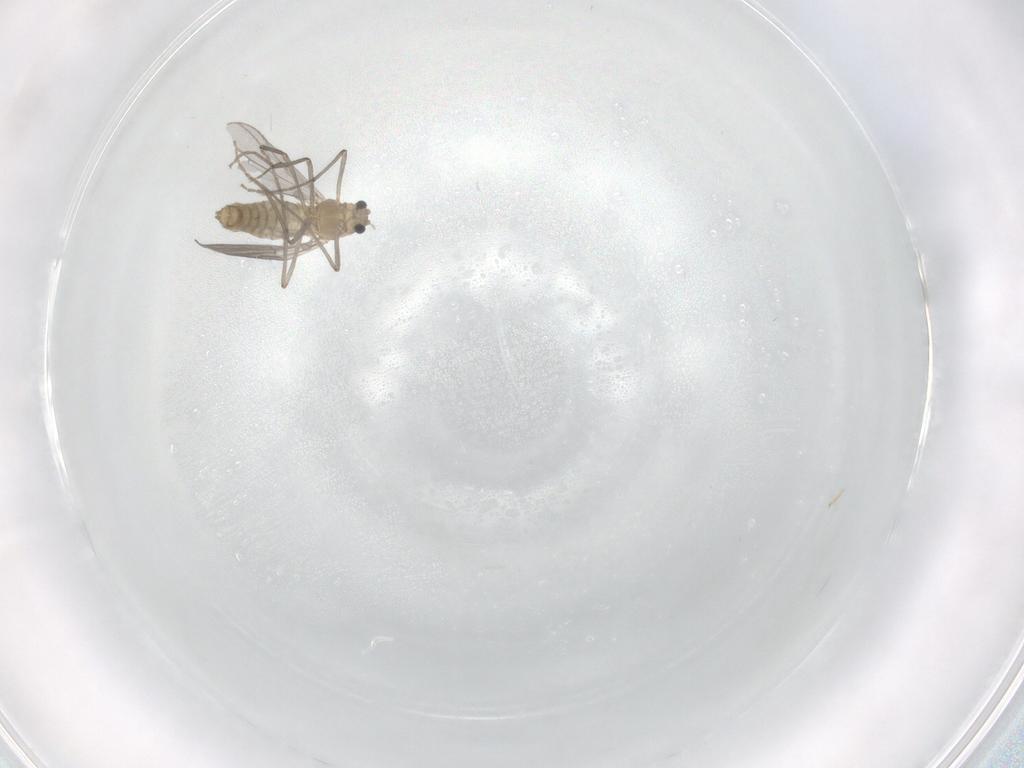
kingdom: Animalia
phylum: Arthropoda
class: Insecta
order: Diptera
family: Chironomidae
